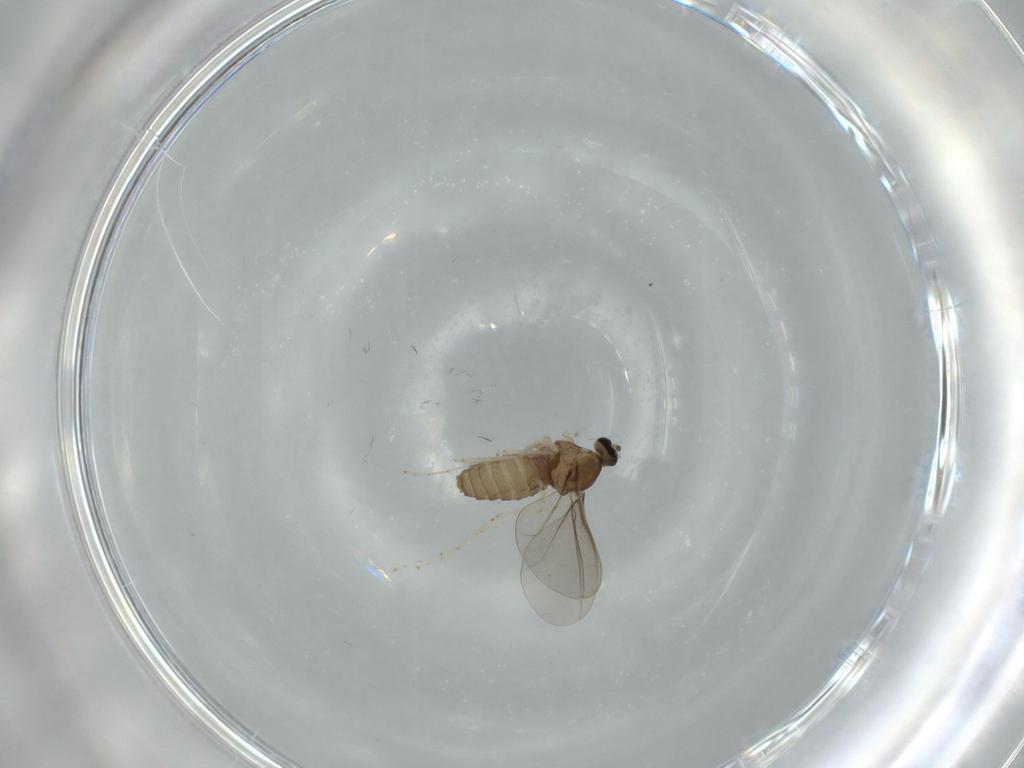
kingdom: Animalia
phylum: Arthropoda
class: Insecta
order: Diptera
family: Cecidomyiidae
